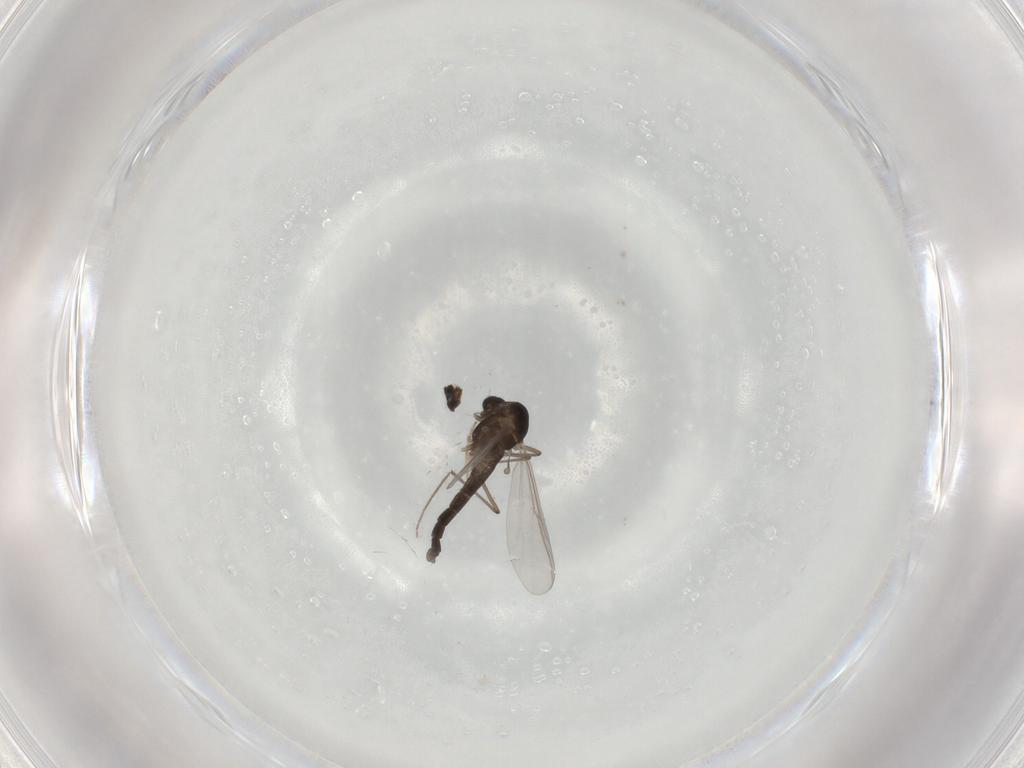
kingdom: Animalia
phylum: Arthropoda
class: Insecta
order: Diptera
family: Chironomidae
